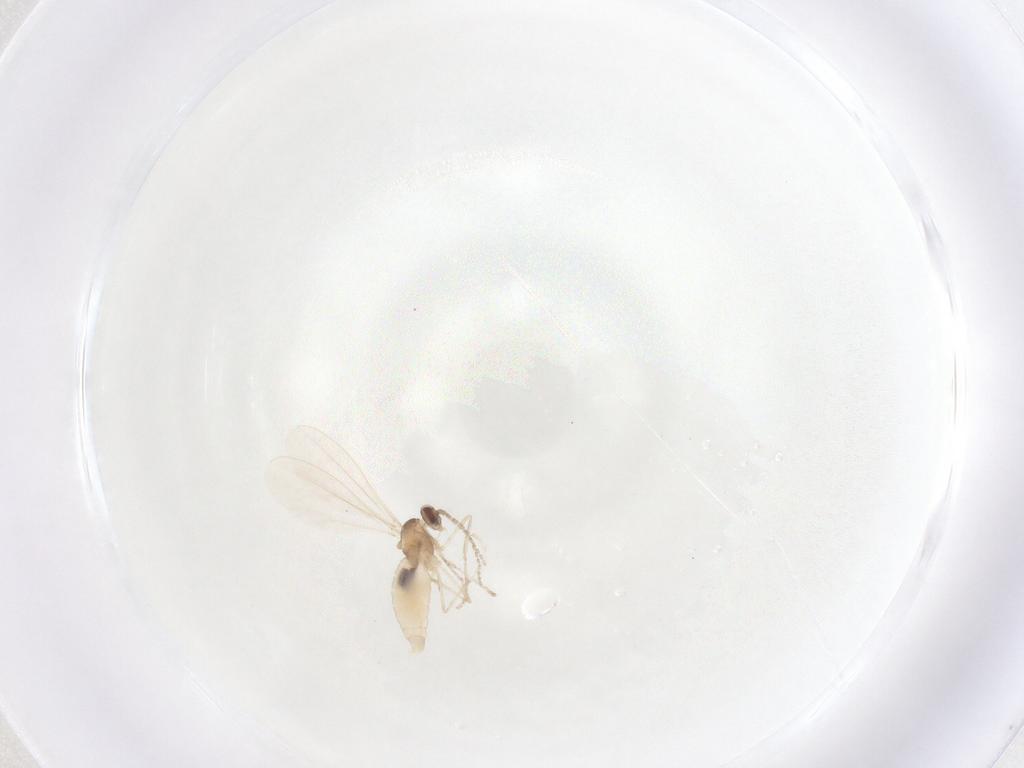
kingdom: Animalia
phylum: Arthropoda
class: Insecta
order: Diptera
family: Cecidomyiidae
